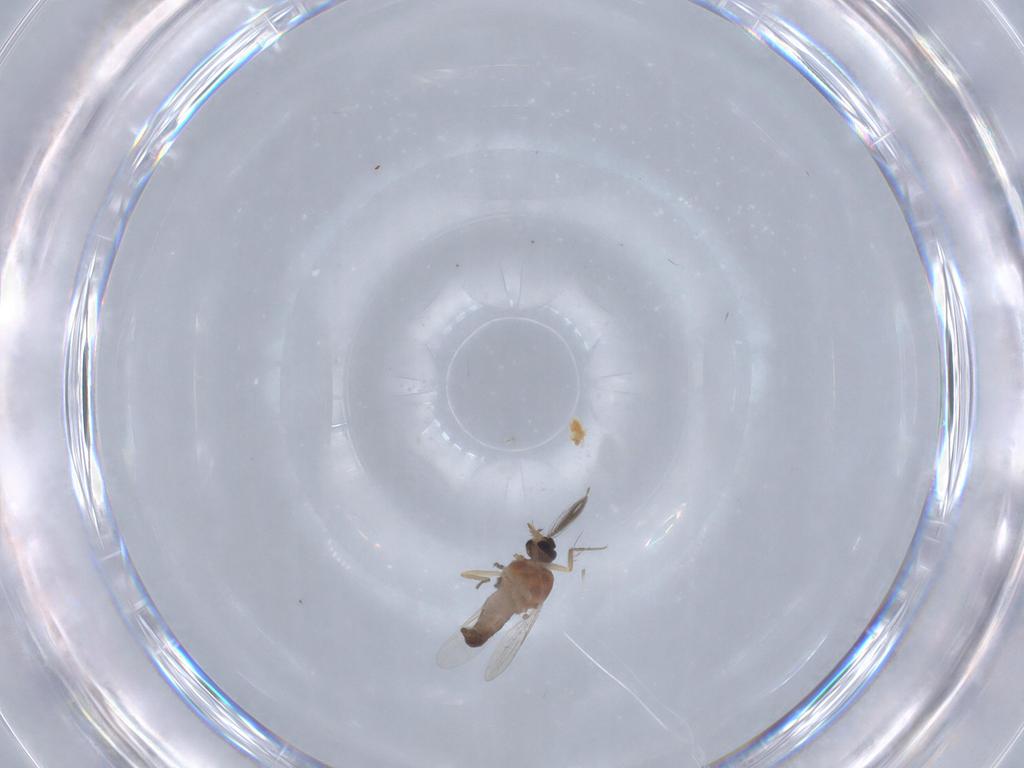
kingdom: Animalia
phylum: Arthropoda
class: Insecta
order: Diptera
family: Ceratopogonidae
